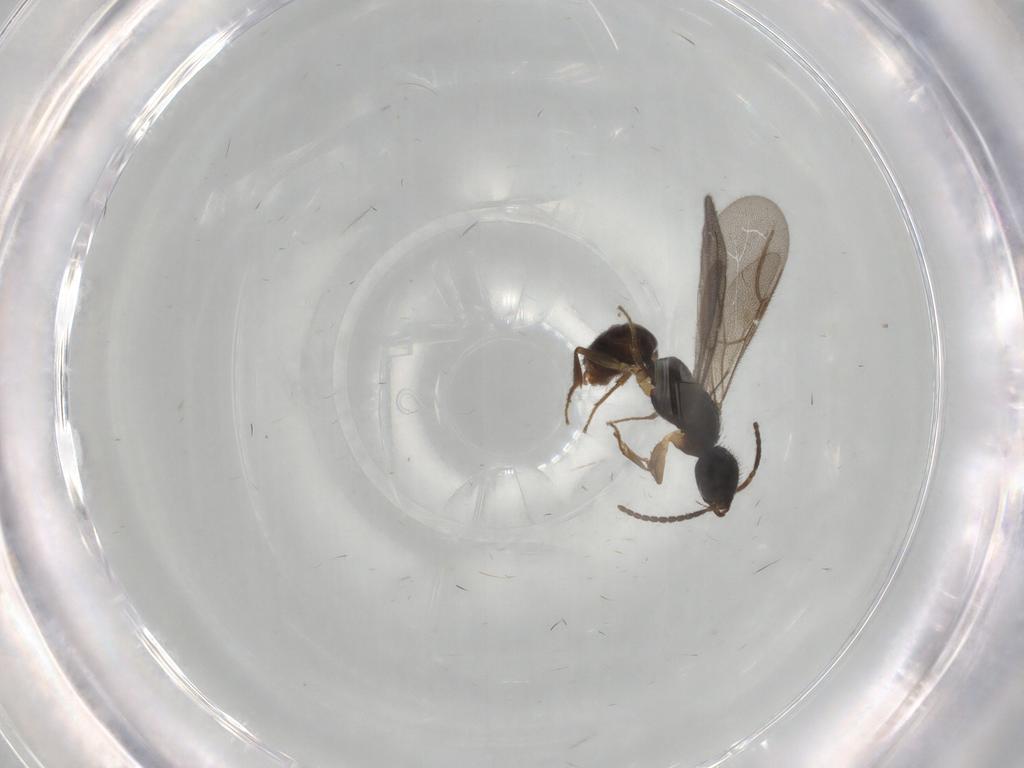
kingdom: Animalia
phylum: Arthropoda
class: Insecta
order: Hymenoptera
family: Bethylidae
